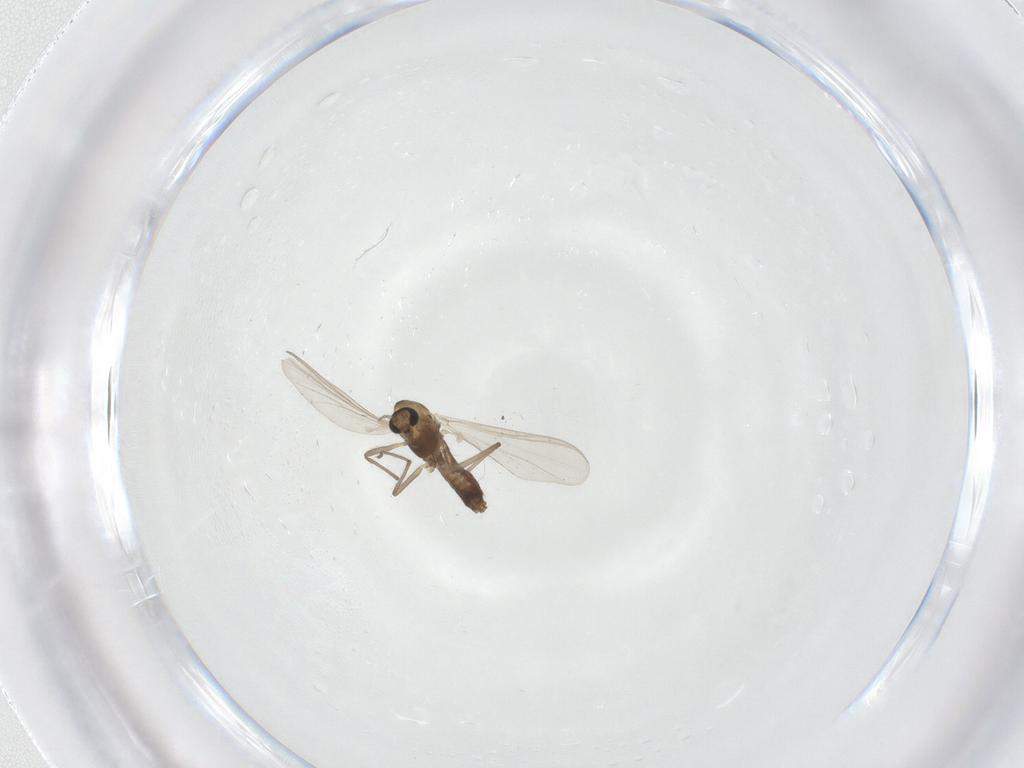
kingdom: Animalia
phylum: Arthropoda
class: Insecta
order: Diptera
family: Chironomidae
